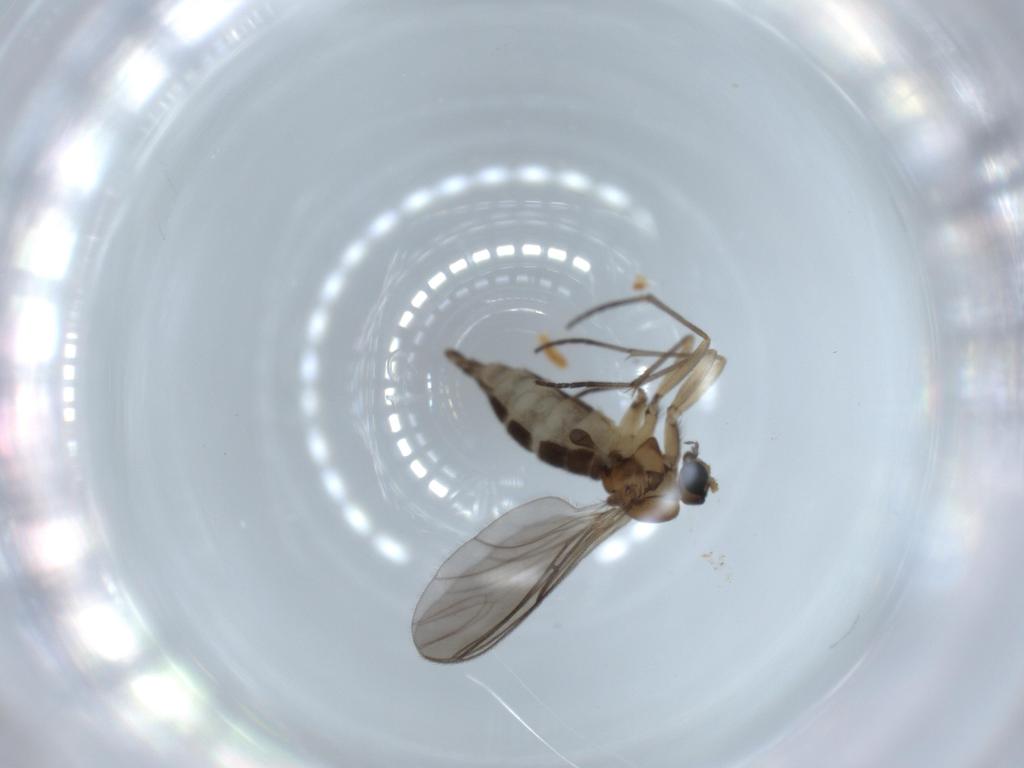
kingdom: Animalia
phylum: Arthropoda
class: Insecta
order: Diptera
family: Sciaridae
